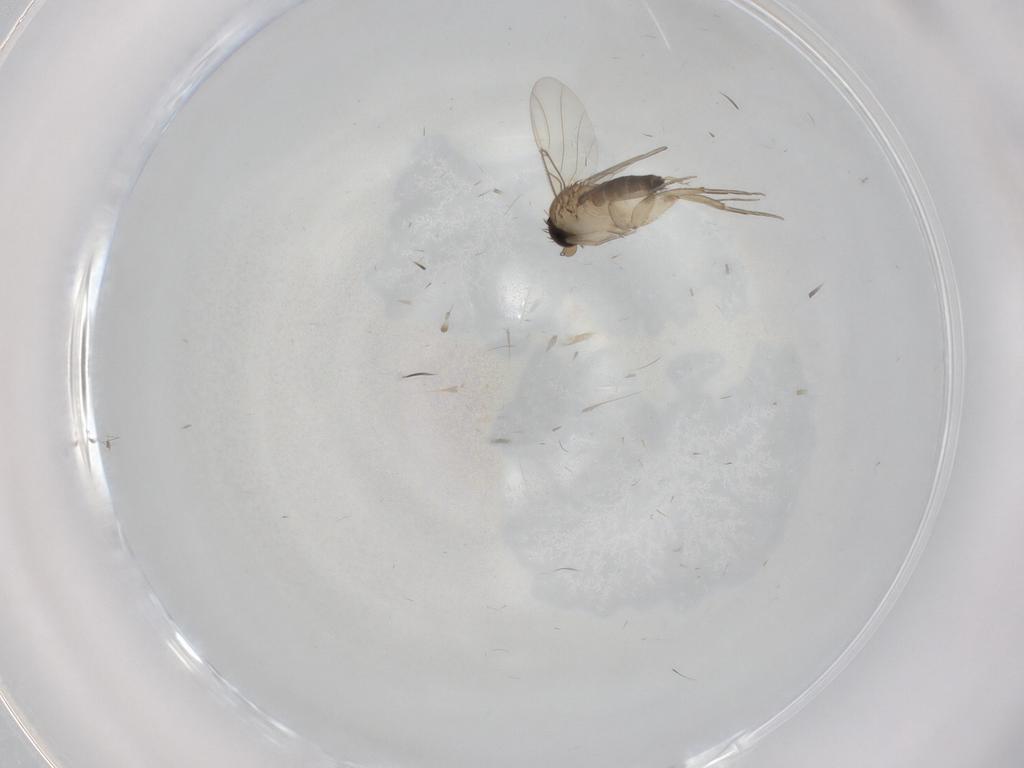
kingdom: Animalia
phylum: Arthropoda
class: Insecta
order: Diptera
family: Phoridae
